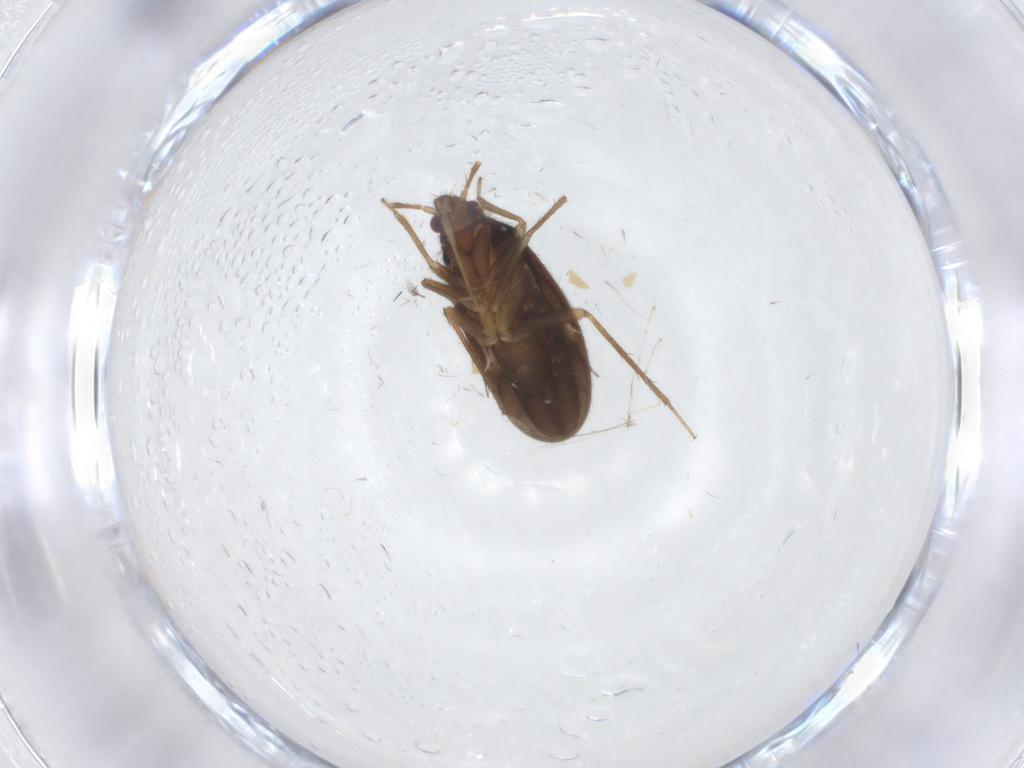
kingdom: Animalia
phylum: Arthropoda
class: Insecta
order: Hemiptera
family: Ceratocombidae
